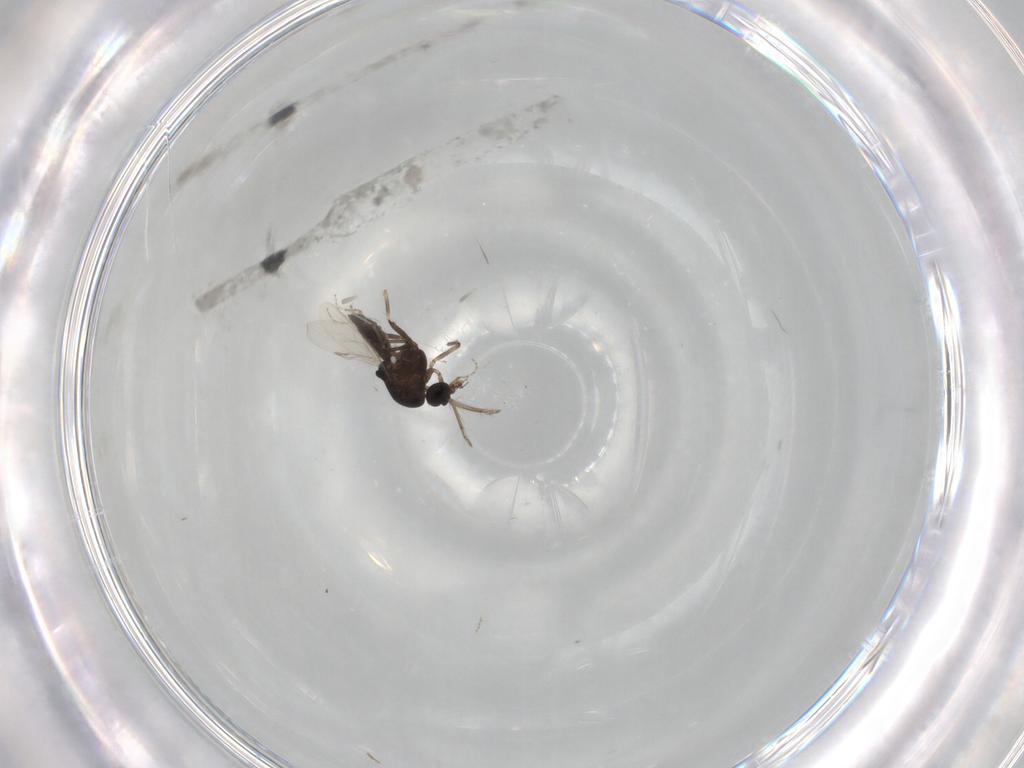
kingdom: Animalia
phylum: Arthropoda
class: Insecta
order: Diptera
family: Ceratopogonidae
